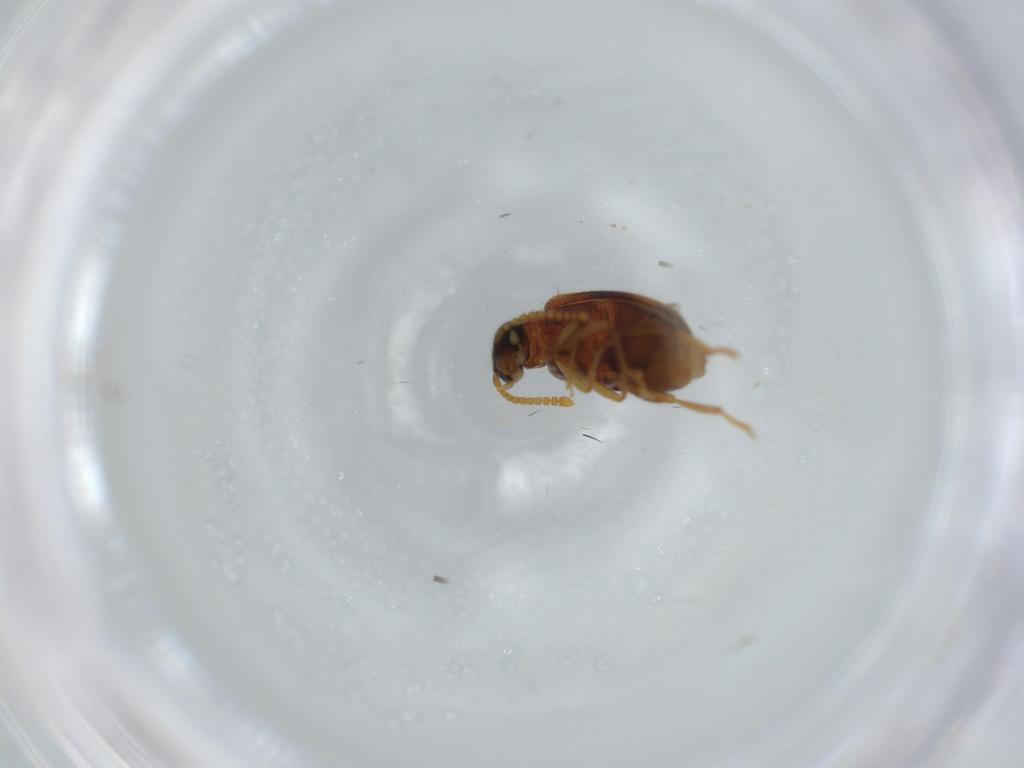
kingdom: Animalia
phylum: Arthropoda
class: Insecta
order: Coleoptera
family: Aderidae
